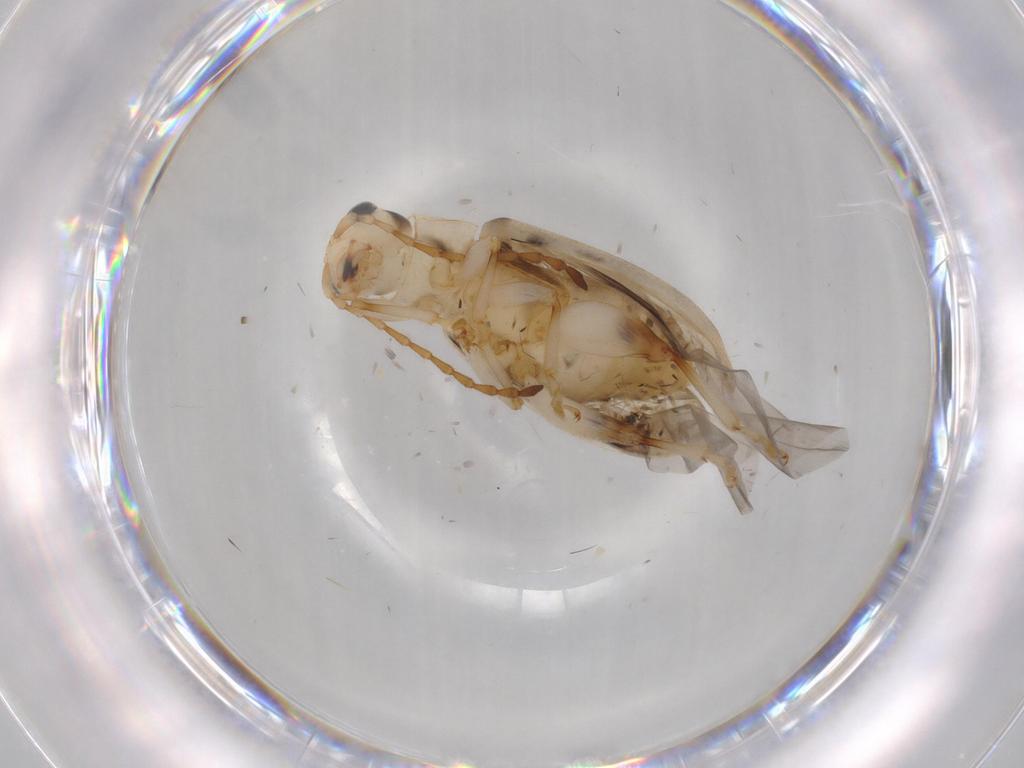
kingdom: Animalia
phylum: Arthropoda
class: Insecta
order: Coleoptera
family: Chrysomelidae
